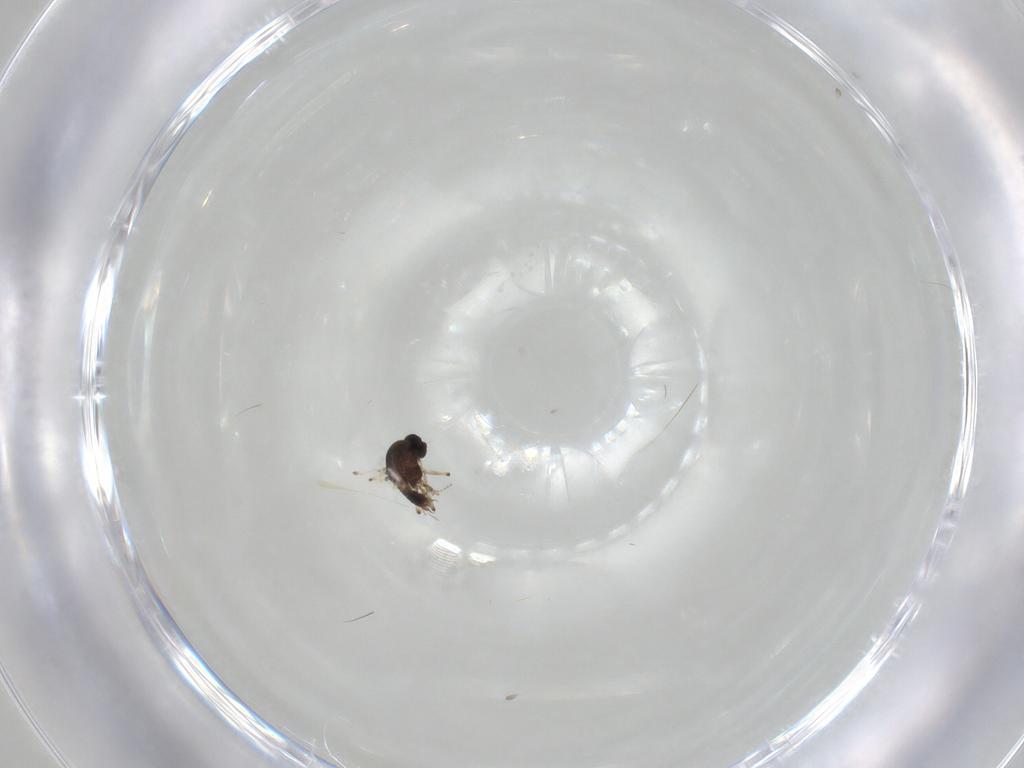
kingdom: Animalia
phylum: Arthropoda
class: Insecta
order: Diptera
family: Ceratopogonidae
